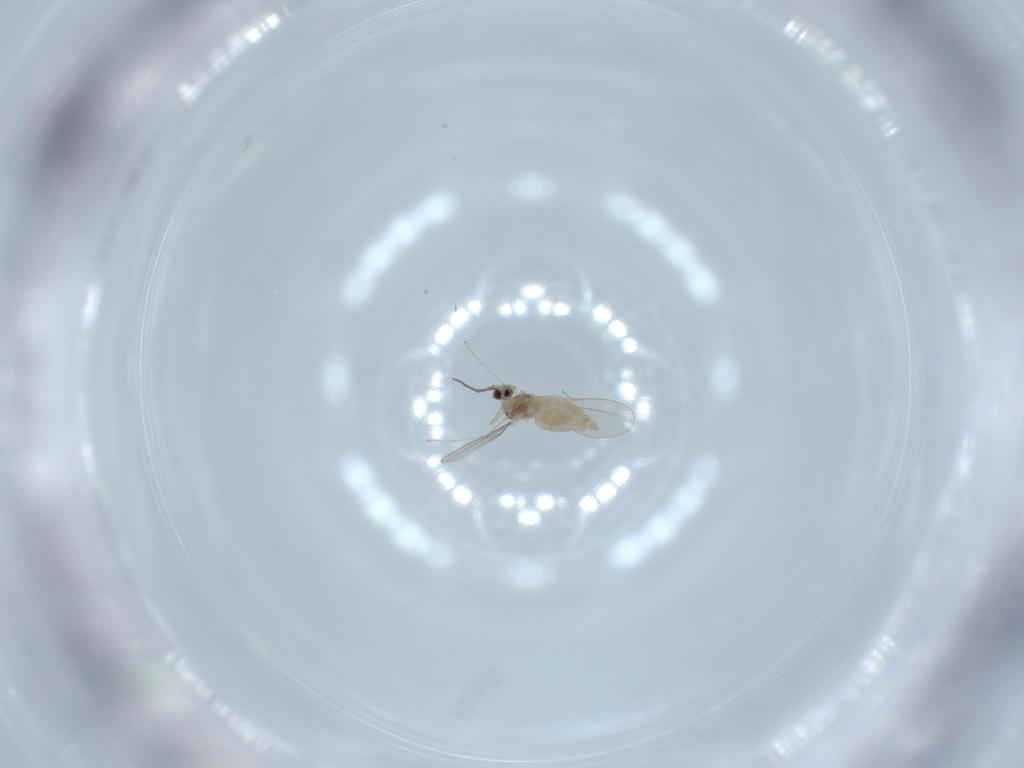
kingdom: Animalia
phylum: Arthropoda
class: Insecta
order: Diptera
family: Cecidomyiidae
